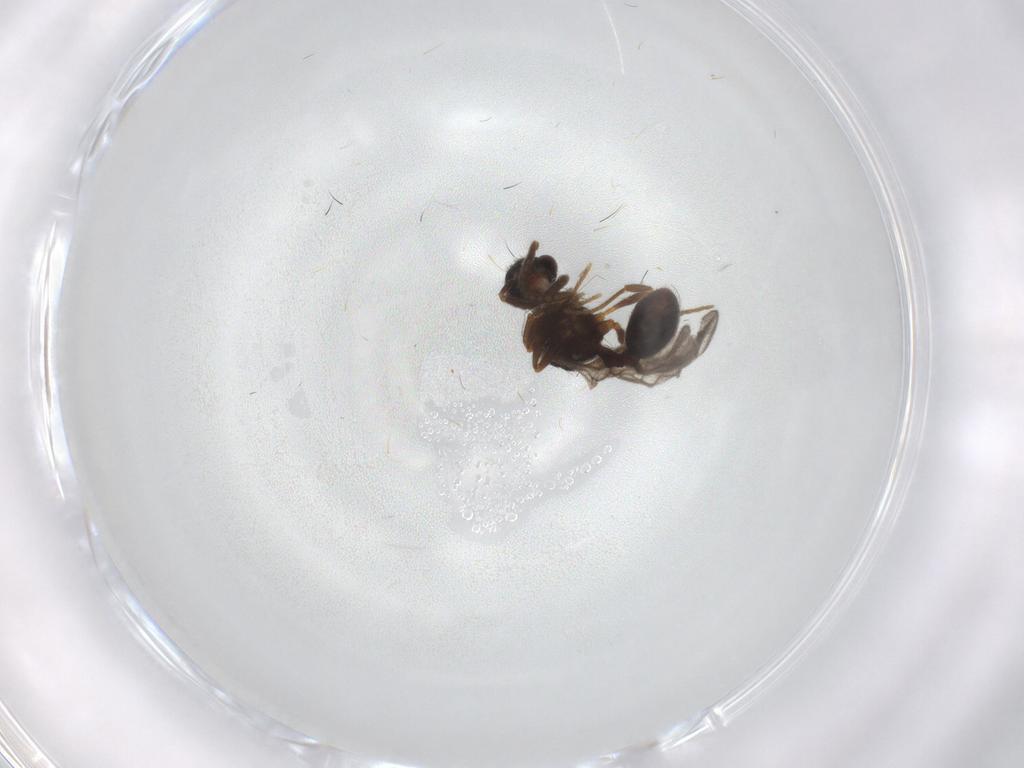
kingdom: Animalia
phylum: Arthropoda
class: Insecta
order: Hymenoptera
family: Formicidae
